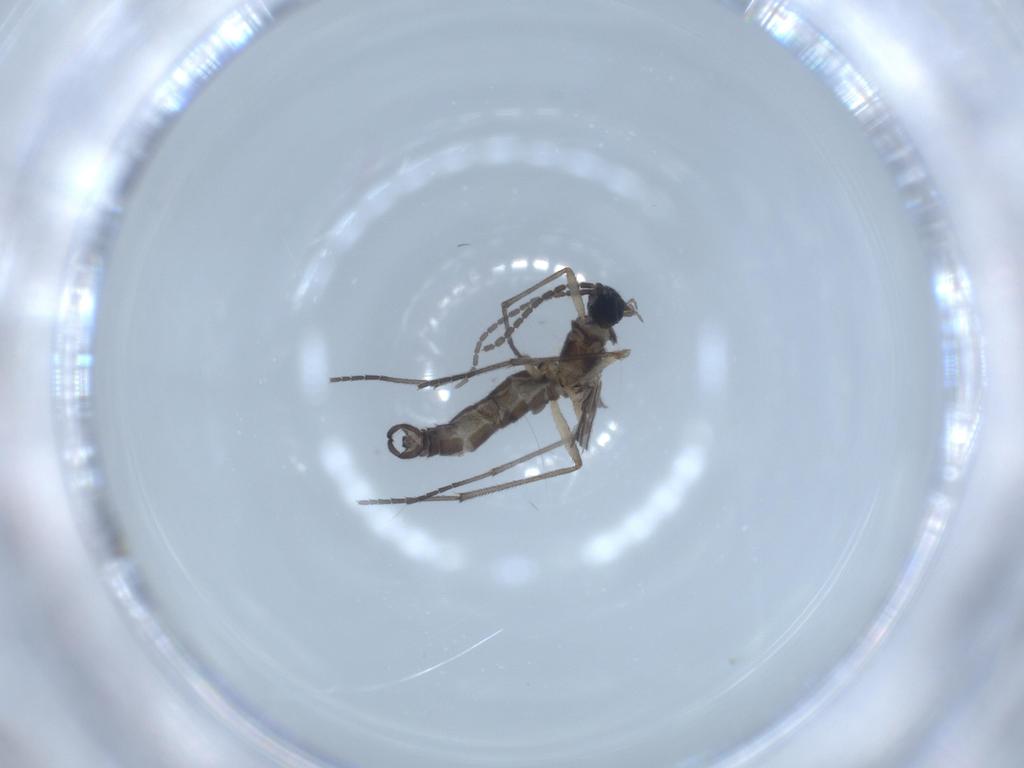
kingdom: Animalia
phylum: Arthropoda
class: Insecta
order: Diptera
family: Sciaridae
